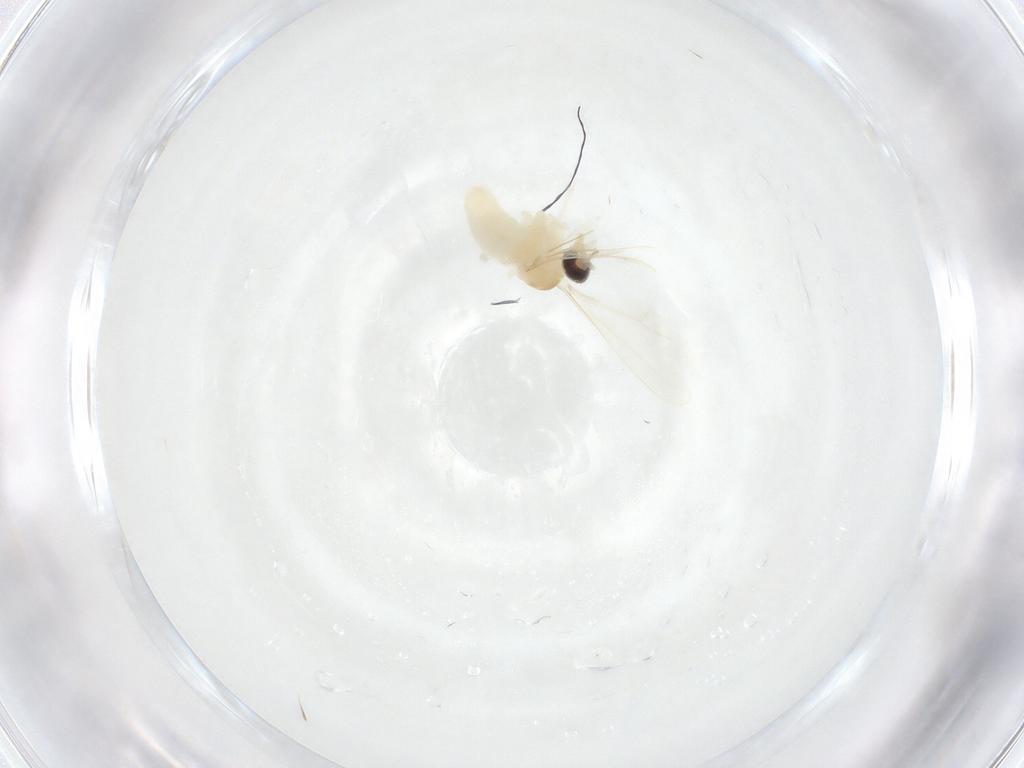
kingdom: Animalia
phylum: Arthropoda
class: Insecta
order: Diptera
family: Cecidomyiidae
